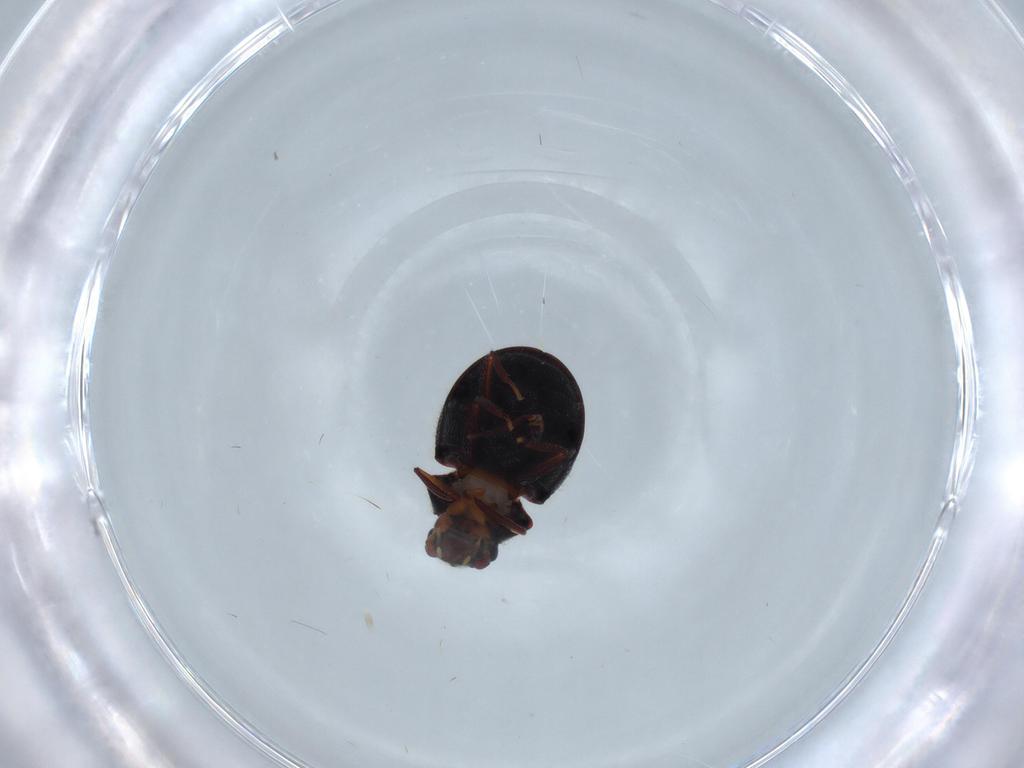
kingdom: Animalia
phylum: Arthropoda
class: Insecta
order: Coleoptera
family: Ptinidae
